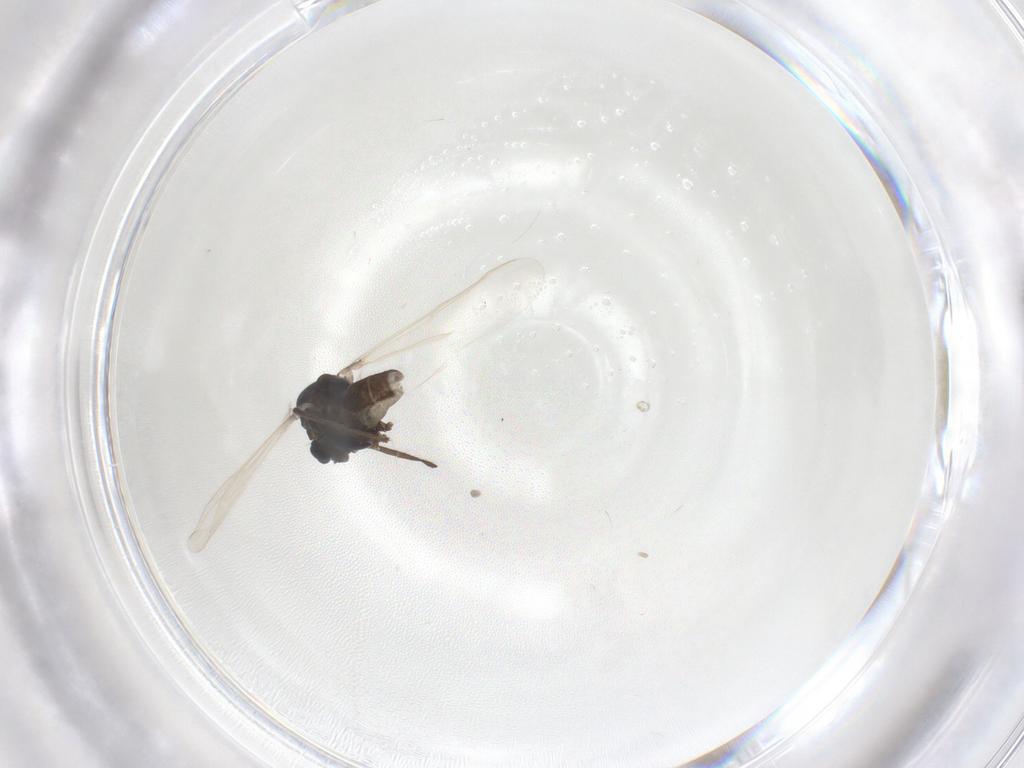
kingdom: Animalia
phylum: Arthropoda
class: Insecta
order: Diptera
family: Chironomidae
